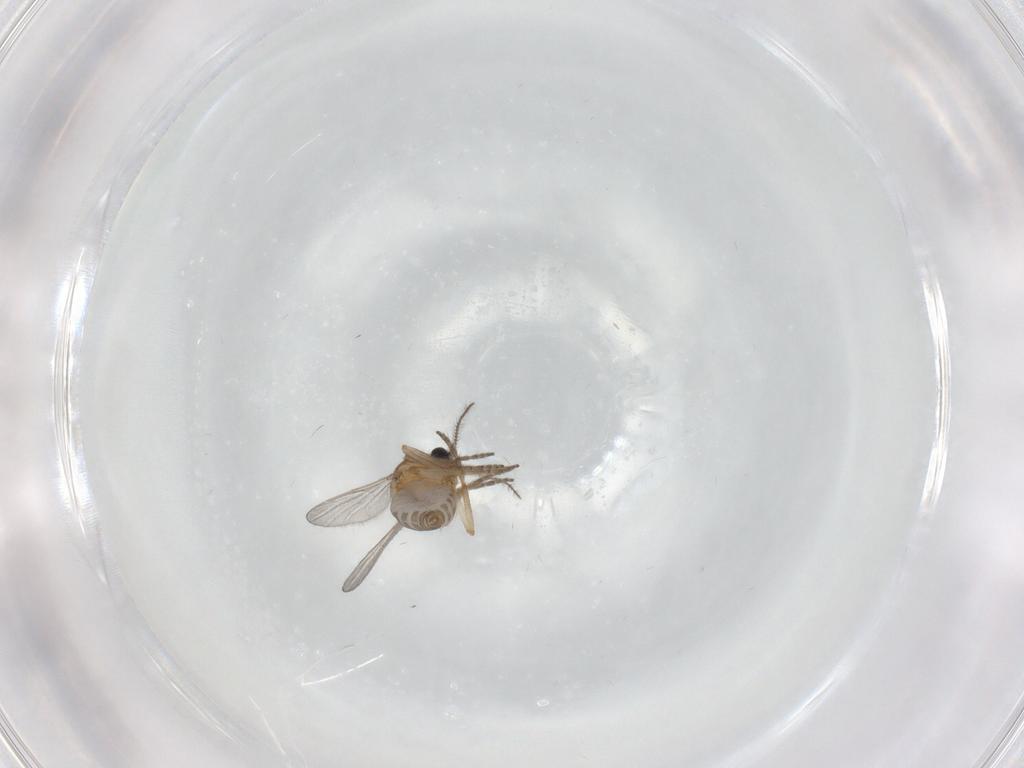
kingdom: Animalia
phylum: Arthropoda
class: Insecta
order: Diptera
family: Ceratopogonidae
